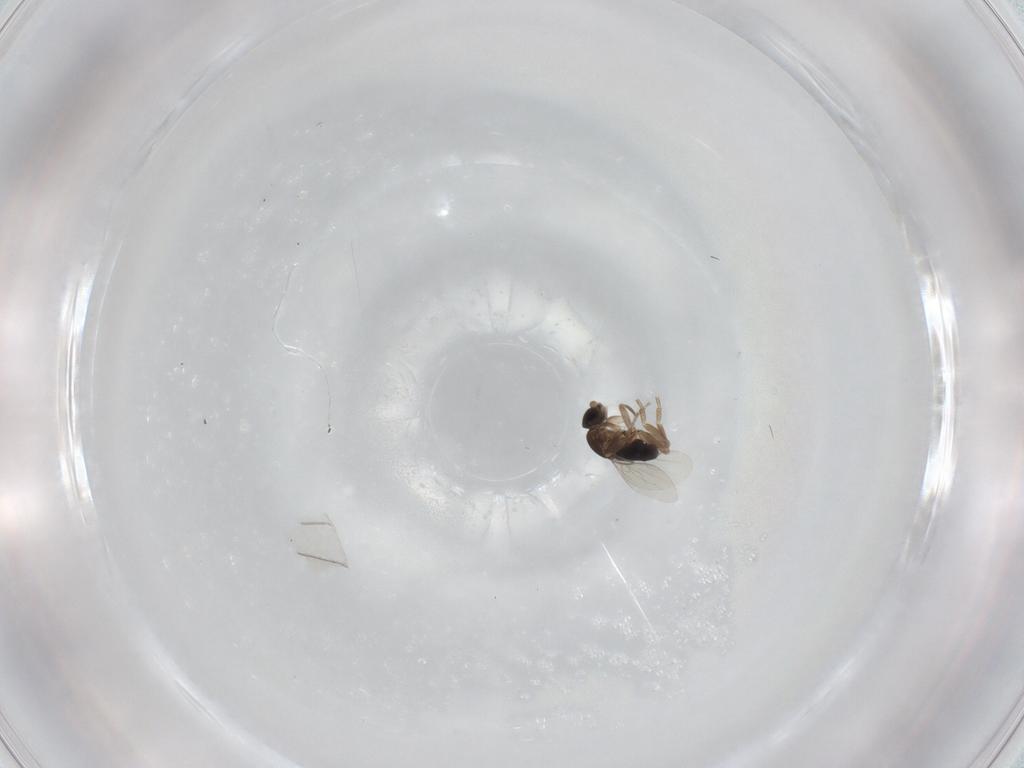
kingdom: Animalia
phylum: Arthropoda
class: Insecta
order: Diptera
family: Phoridae
